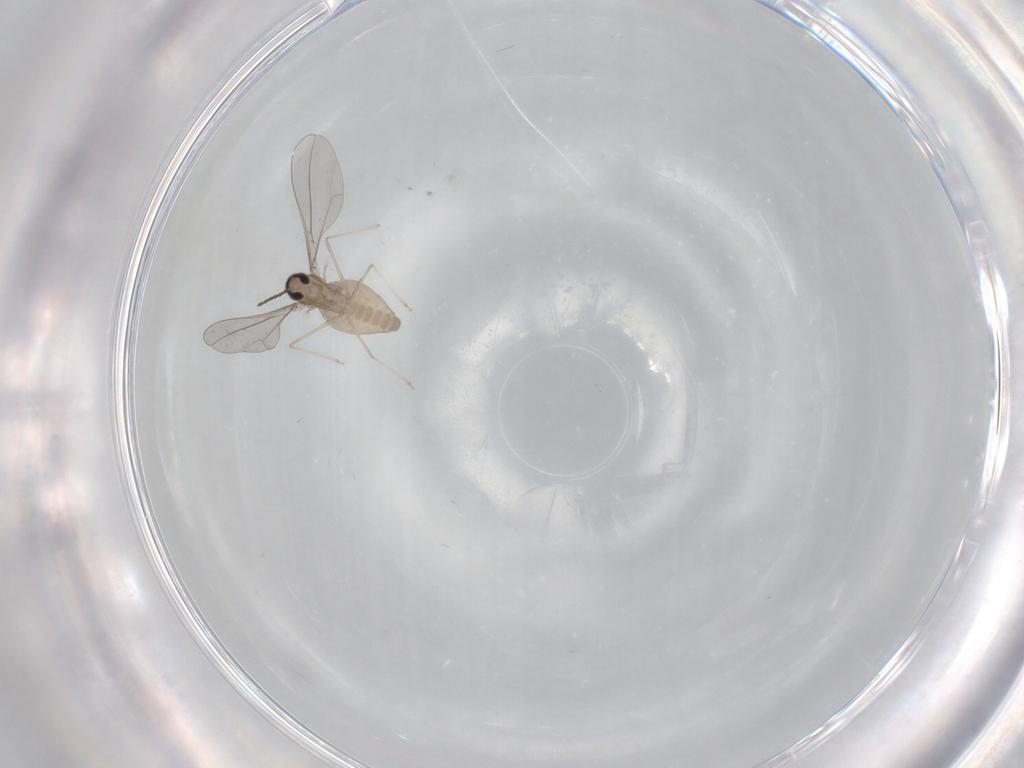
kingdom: Animalia
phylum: Arthropoda
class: Insecta
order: Diptera
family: Cecidomyiidae
